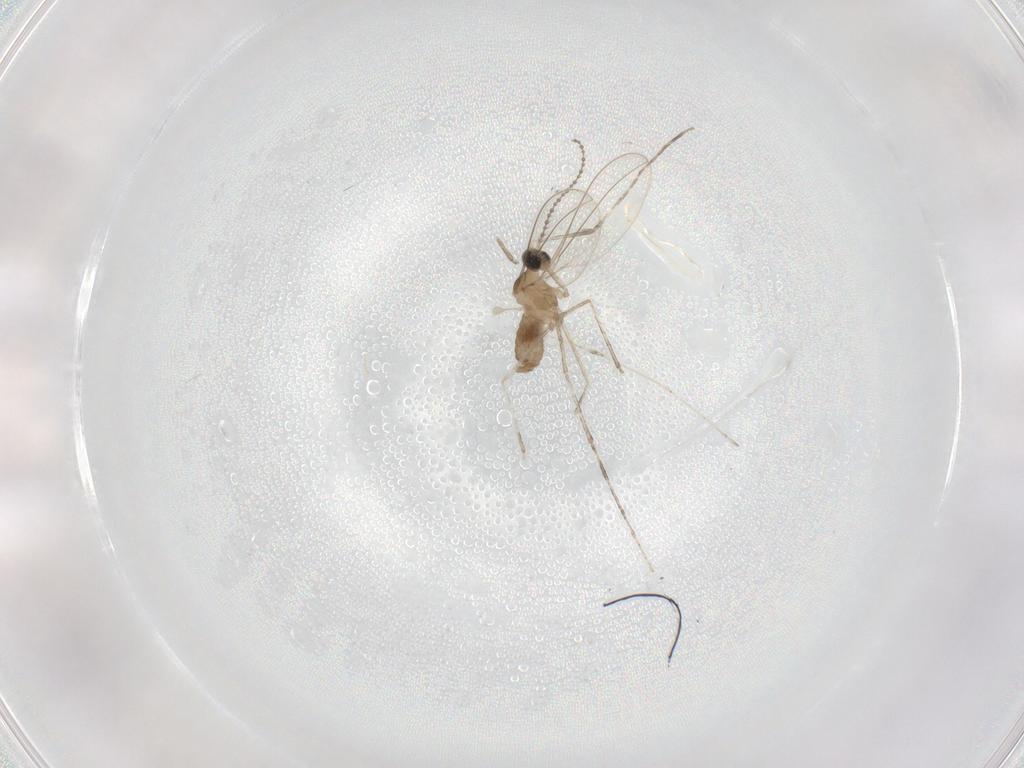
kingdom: Animalia
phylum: Arthropoda
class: Insecta
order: Diptera
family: Cecidomyiidae
